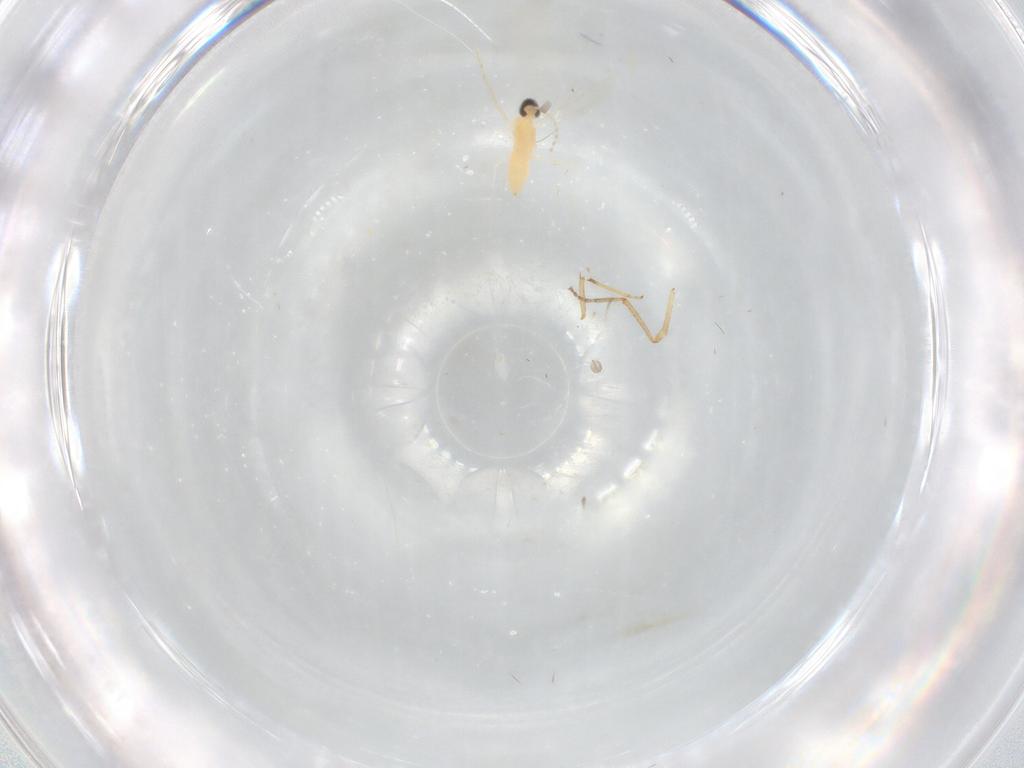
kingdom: Animalia
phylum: Arthropoda
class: Insecta
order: Diptera
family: Cecidomyiidae
